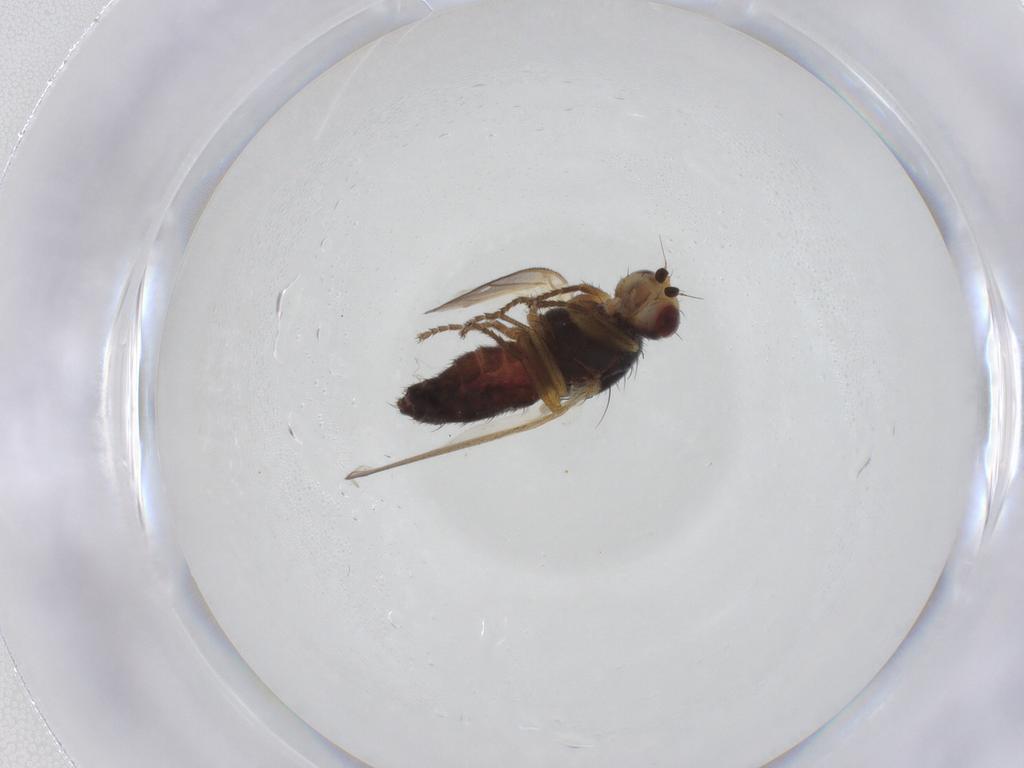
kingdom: Animalia
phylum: Arthropoda
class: Insecta
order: Diptera
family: Heleomyzidae
